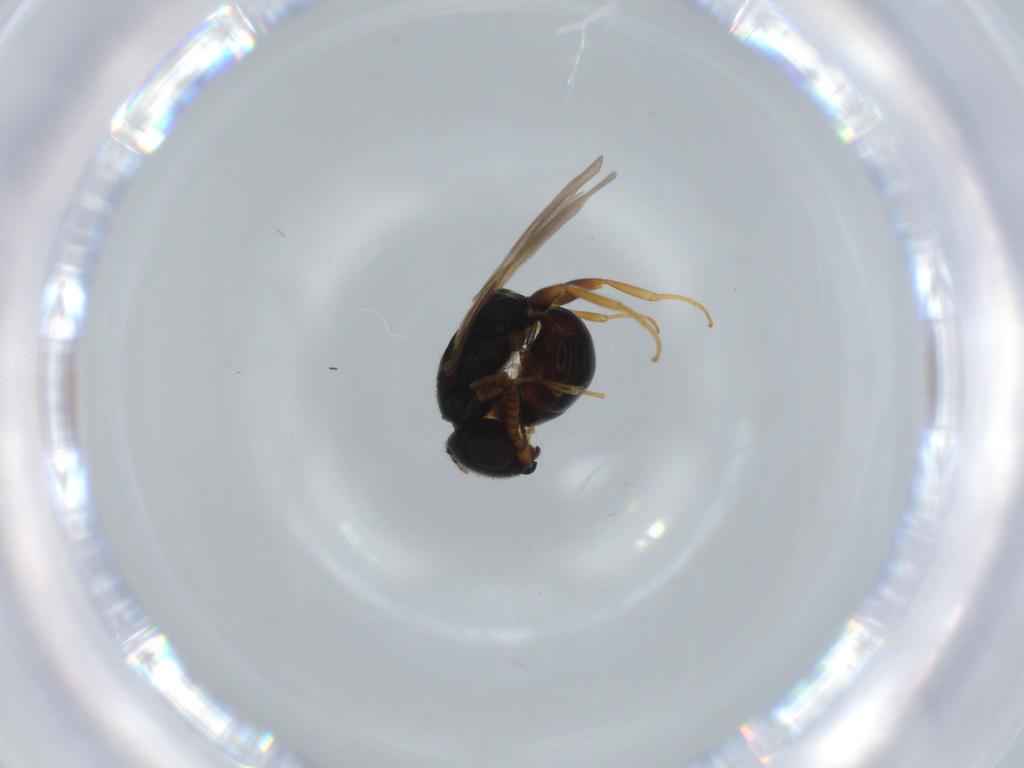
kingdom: Animalia
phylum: Arthropoda
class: Insecta
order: Hymenoptera
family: Bethylidae
